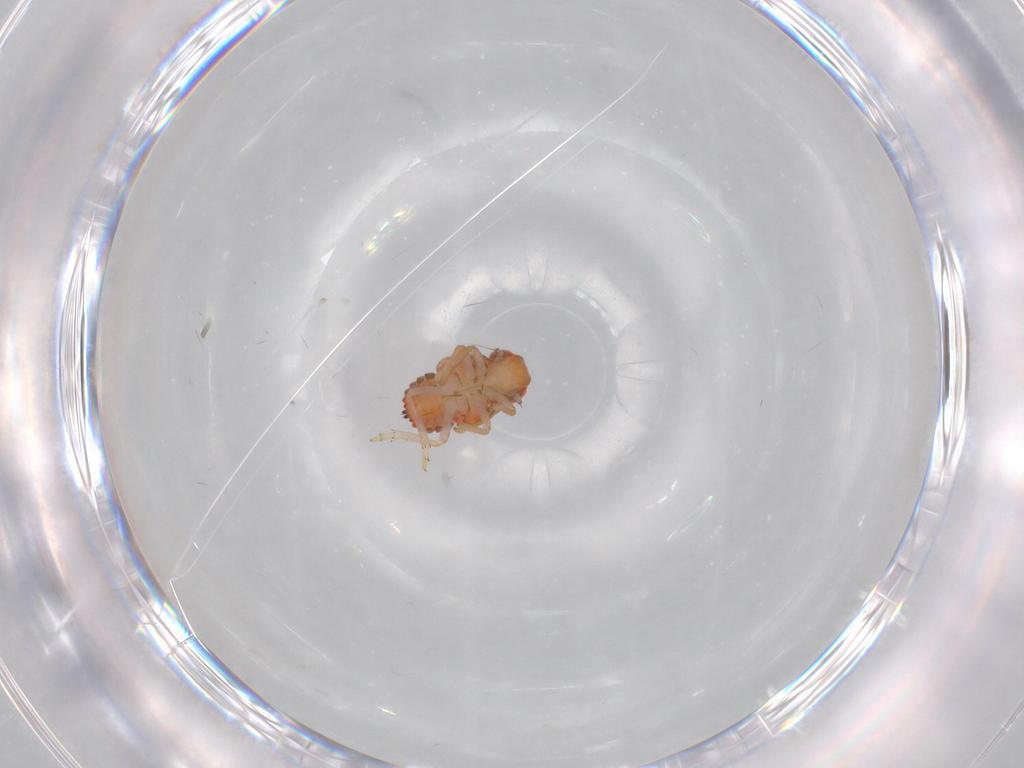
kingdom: Animalia
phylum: Arthropoda
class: Insecta
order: Hemiptera
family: Issidae
